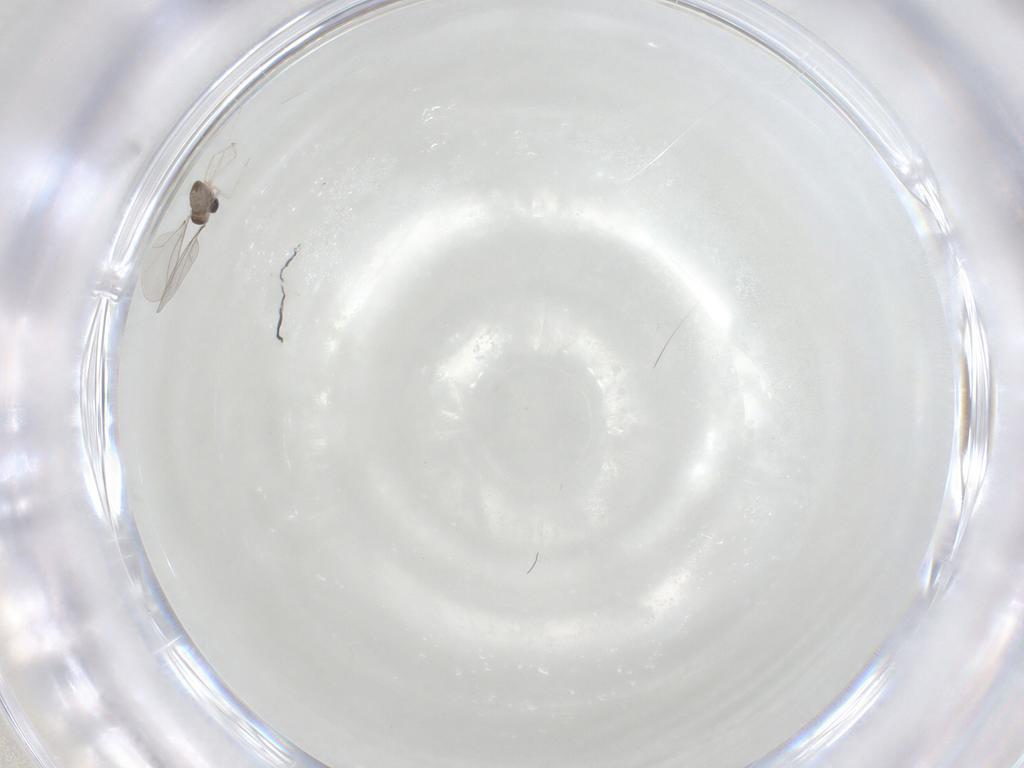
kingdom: Animalia
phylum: Arthropoda
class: Insecta
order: Diptera
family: Cecidomyiidae
